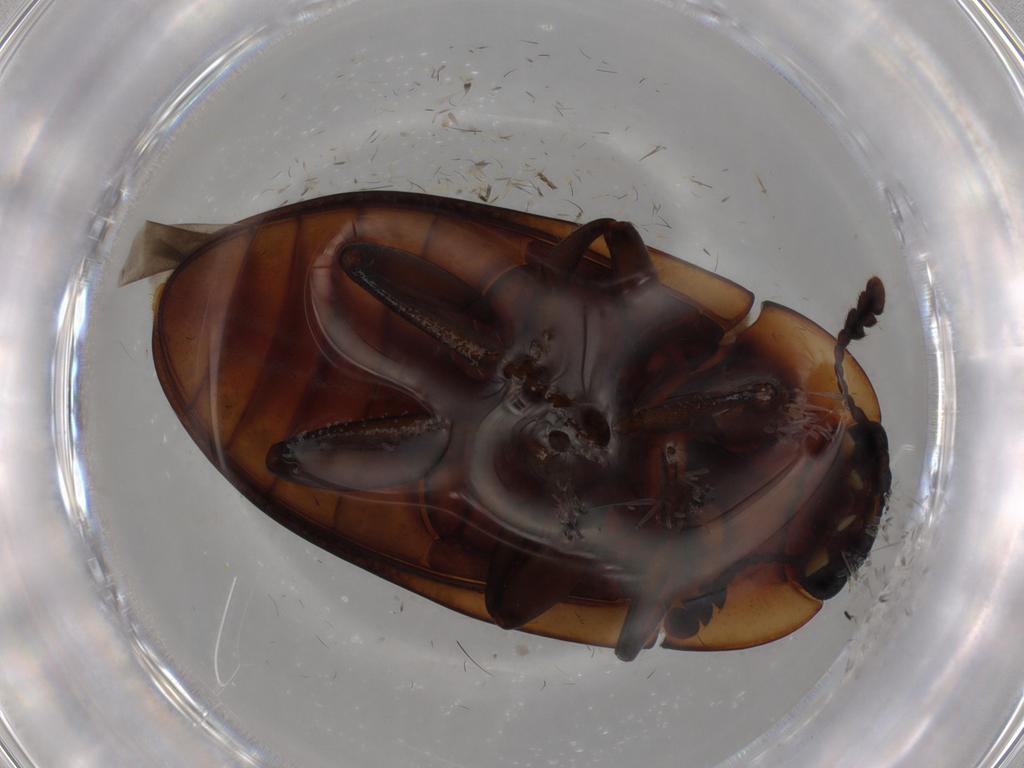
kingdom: Animalia
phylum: Arthropoda
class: Insecta
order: Coleoptera
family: Erotylidae
